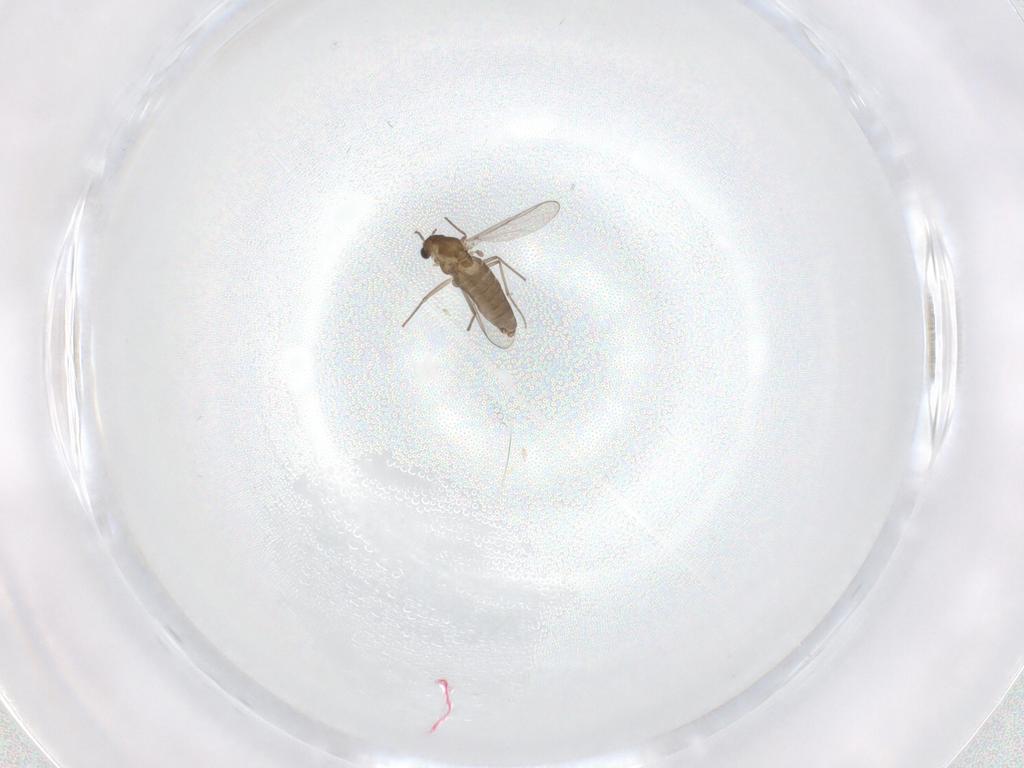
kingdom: Animalia
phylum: Arthropoda
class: Insecta
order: Diptera
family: Chironomidae
